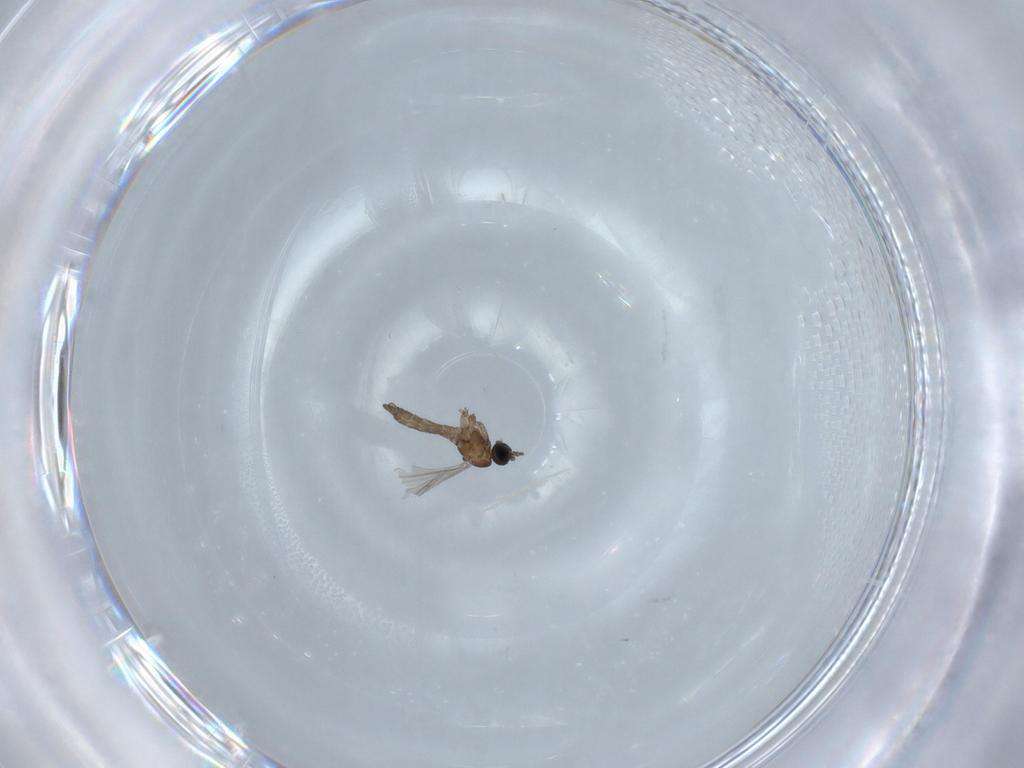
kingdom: Animalia
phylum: Arthropoda
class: Insecta
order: Diptera
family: Sciaridae
